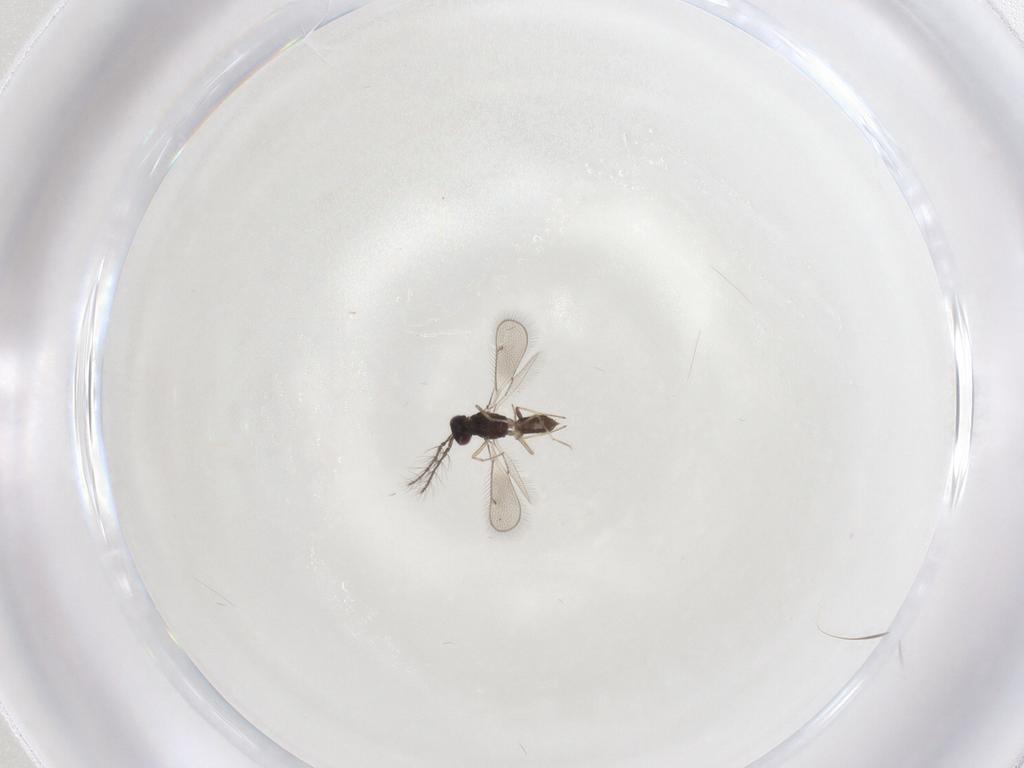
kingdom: Animalia
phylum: Arthropoda
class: Insecta
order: Hymenoptera
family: Eulophidae
